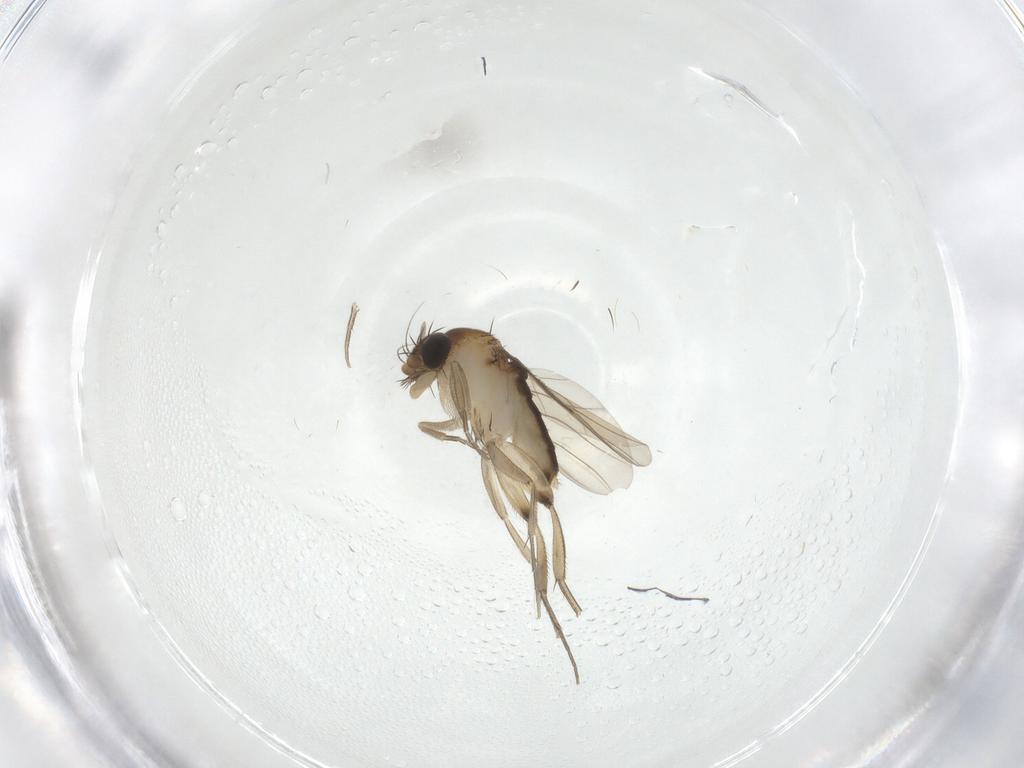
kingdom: Animalia
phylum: Arthropoda
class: Insecta
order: Diptera
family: Phoridae
